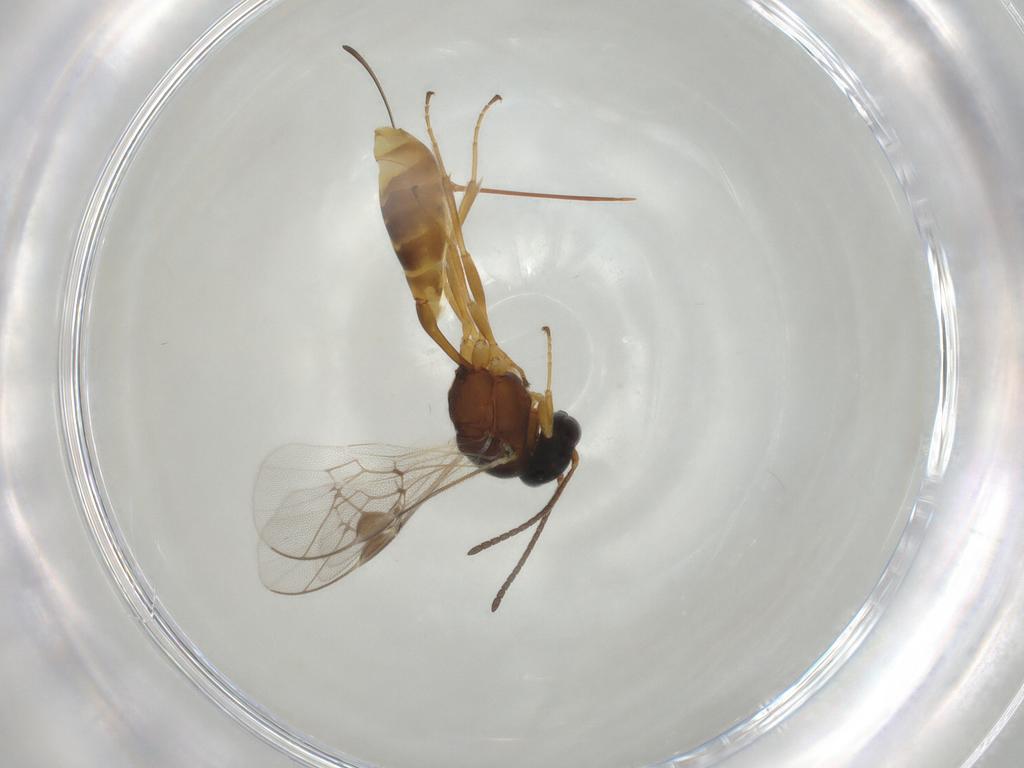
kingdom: Animalia
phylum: Arthropoda
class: Insecta
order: Hymenoptera
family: Ichneumonidae
